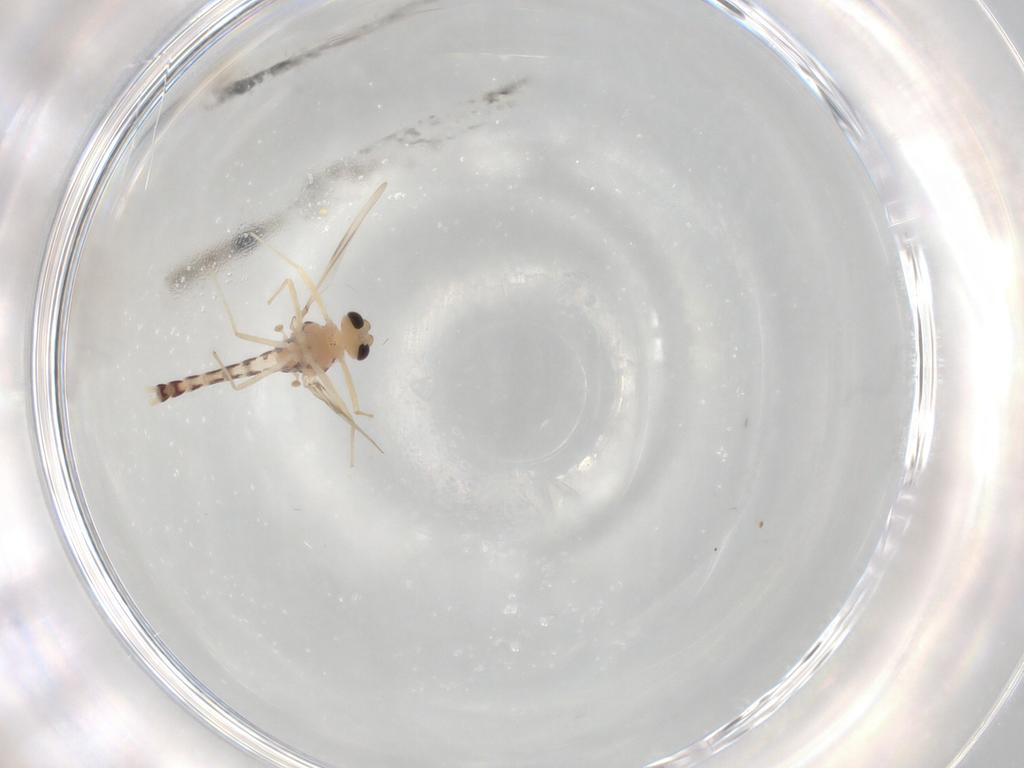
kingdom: Animalia
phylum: Arthropoda
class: Insecta
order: Diptera
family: Chironomidae
